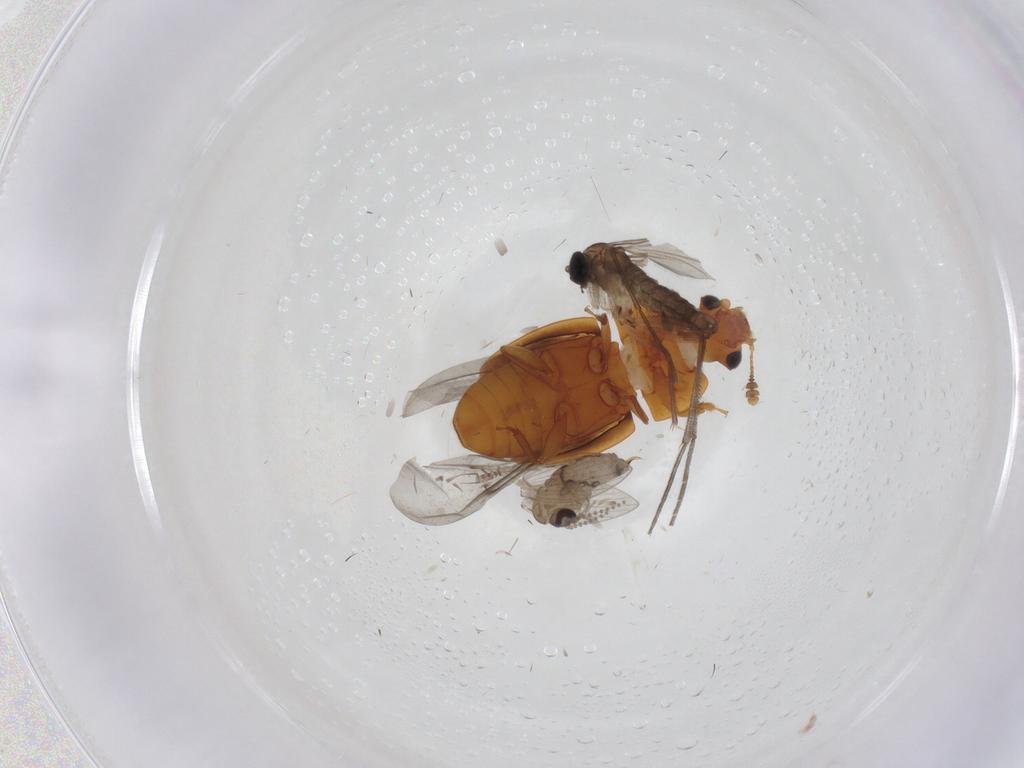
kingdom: Animalia
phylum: Arthropoda
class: Insecta
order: Diptera
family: Sciaridae
